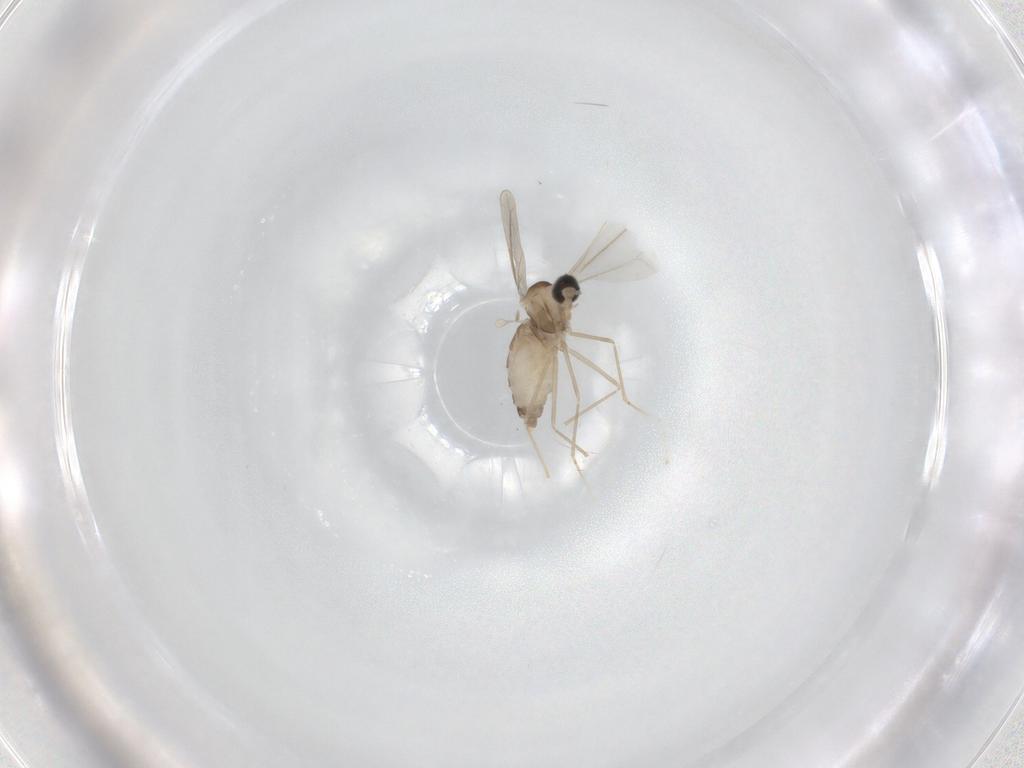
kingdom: Animalia
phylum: Arthropoda
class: Insecta
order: Diptera
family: Cecidomyiidae
